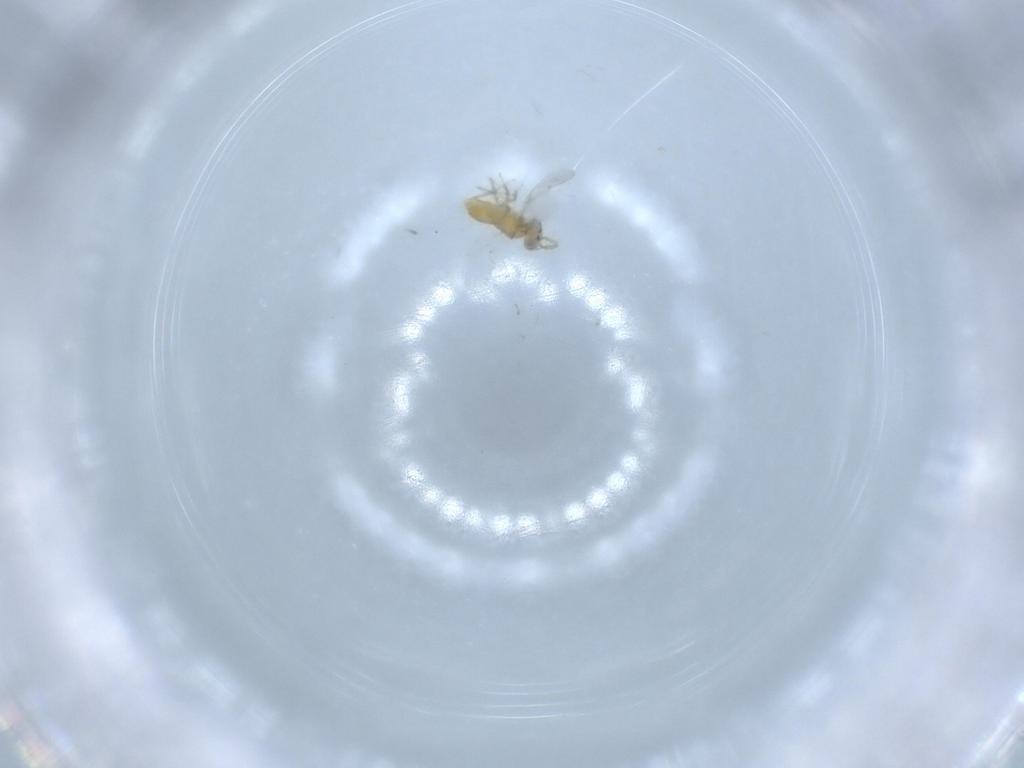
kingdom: Animalia
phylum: Arthropoda
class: Insecta
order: Hymenoptera
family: Aphelinidae
